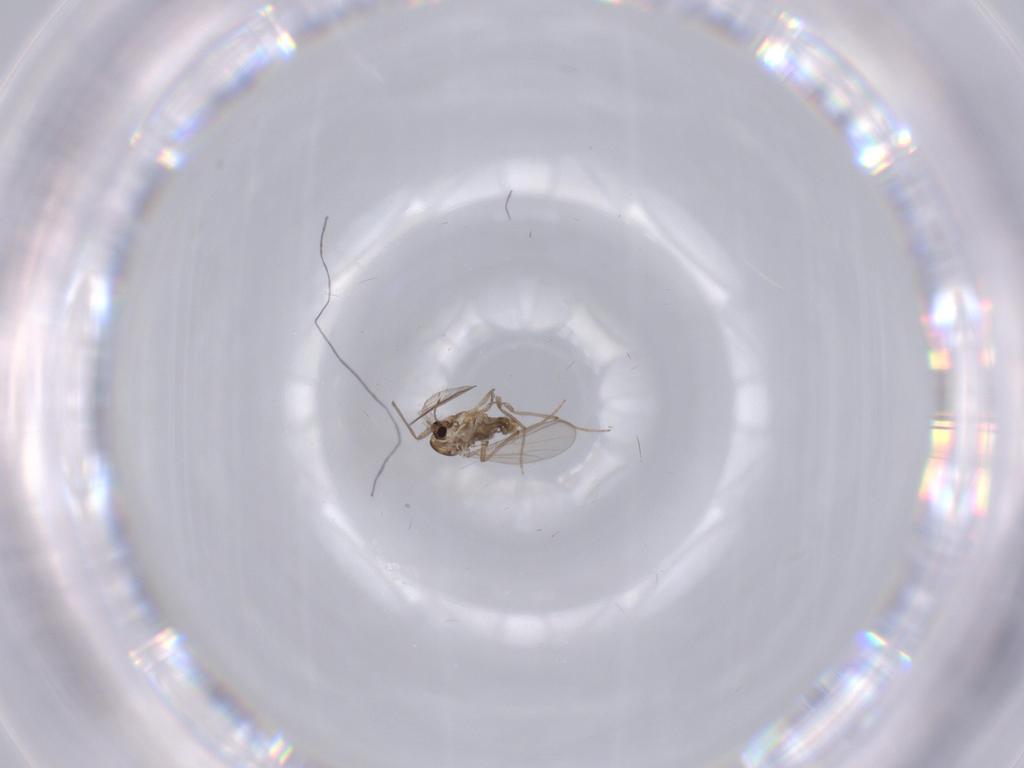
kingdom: Animalia
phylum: Arthropoda
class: Insecta
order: Diptera
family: Chironomidae
